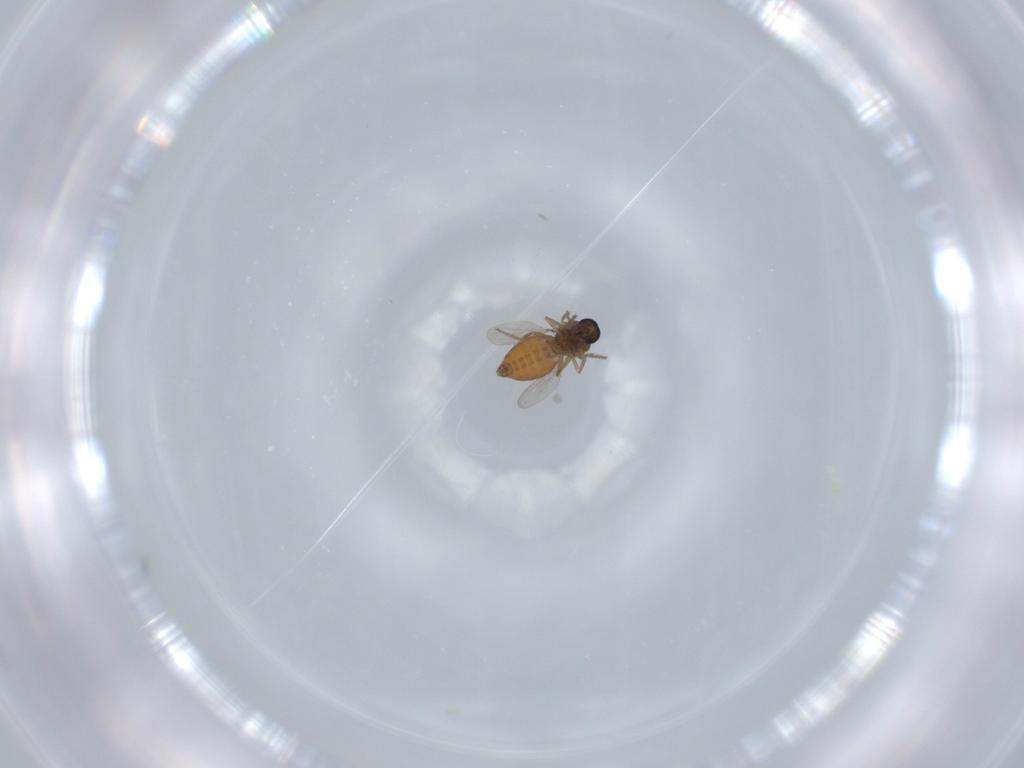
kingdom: Animalia
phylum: Arthropoda
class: Insecta
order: Diptera
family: Ceratopogonidae
